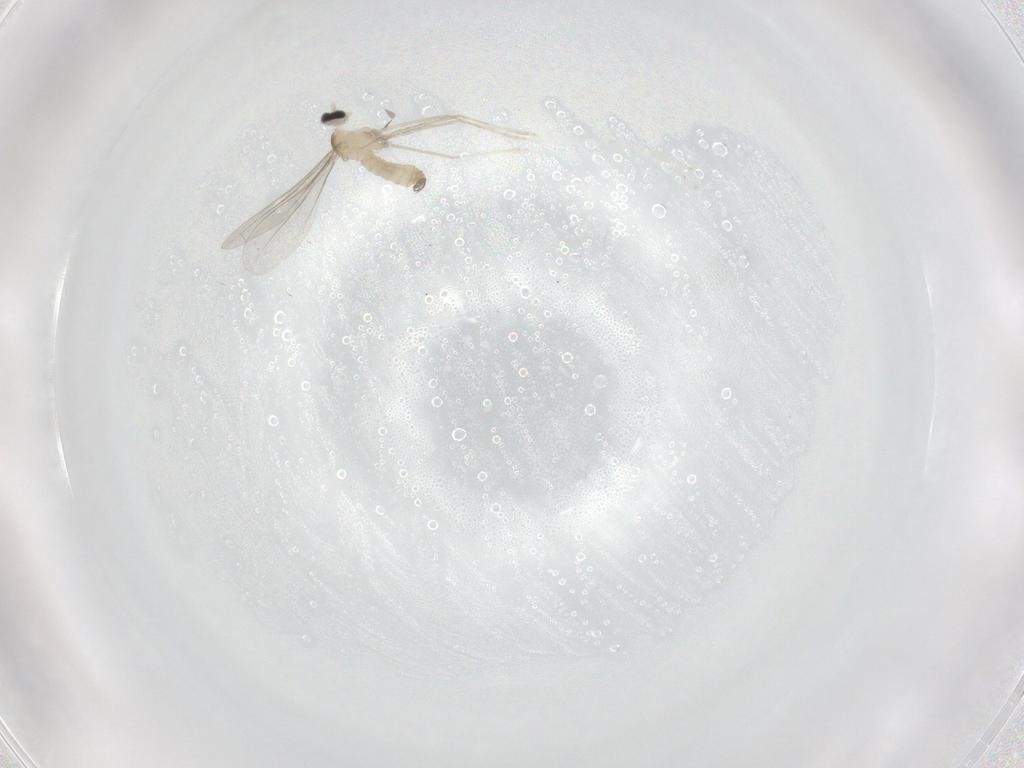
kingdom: Animalia
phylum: Arthropoda
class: Insecta
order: Diptera
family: Cecidomyiidae
